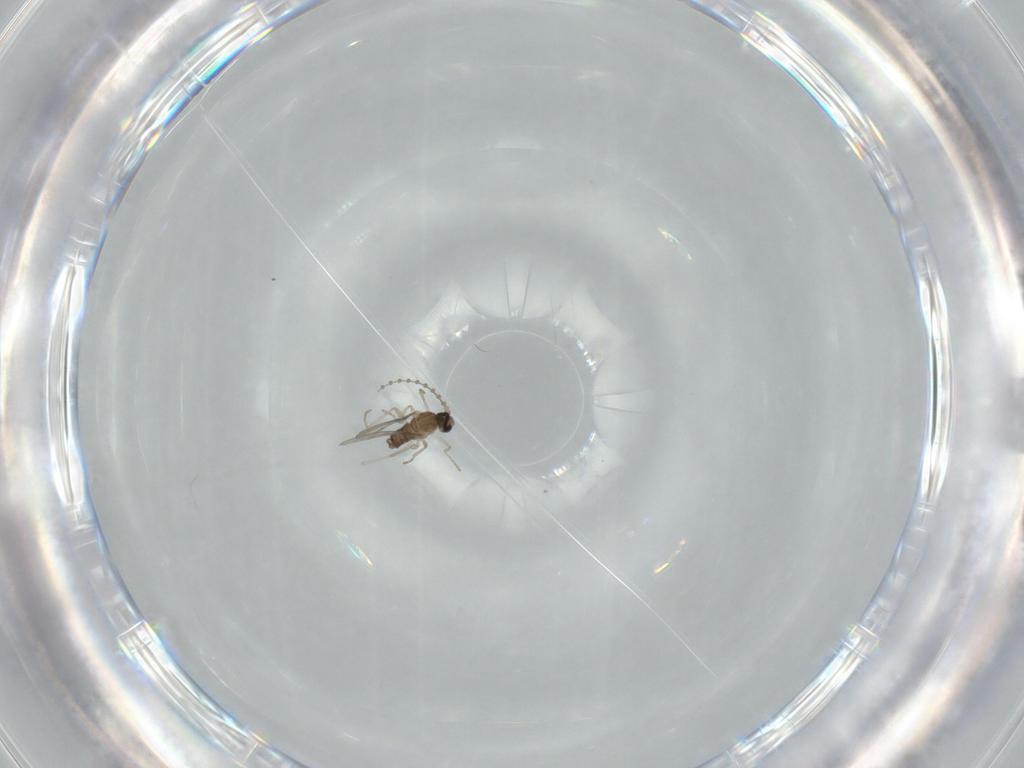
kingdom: Animalia
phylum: Arthropoda
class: Insecta
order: Diptera
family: Cecidomyiidae
